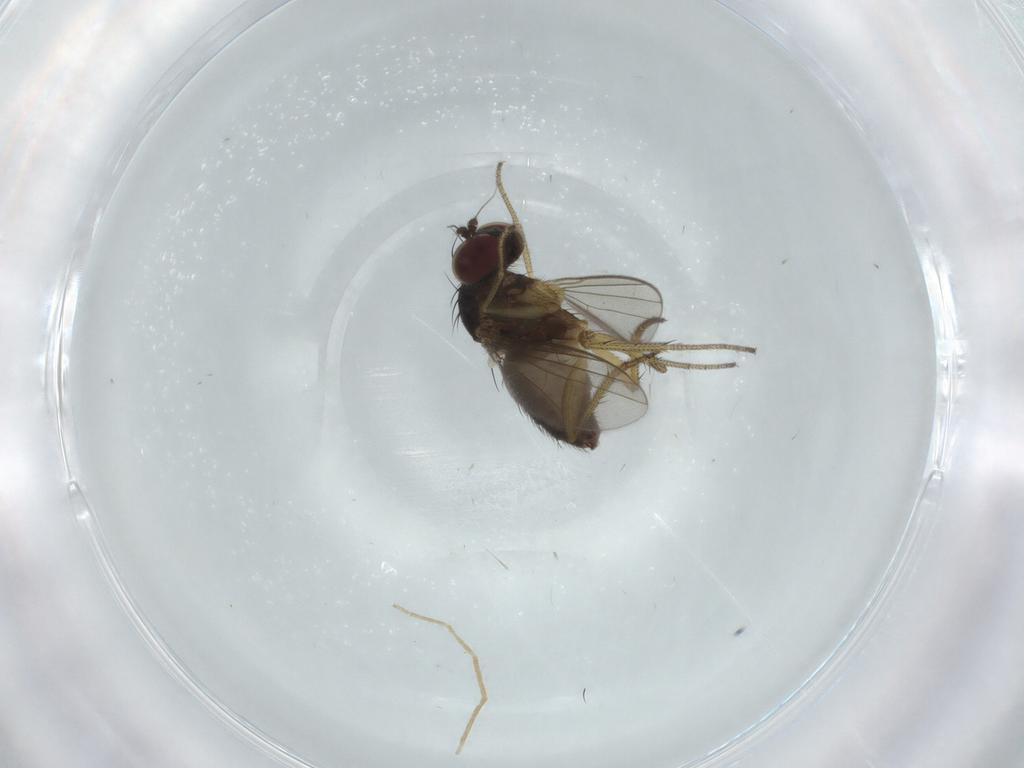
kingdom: Animalia
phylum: Arthropoda
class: Insecta
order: Diptera
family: Dolichopodidae
